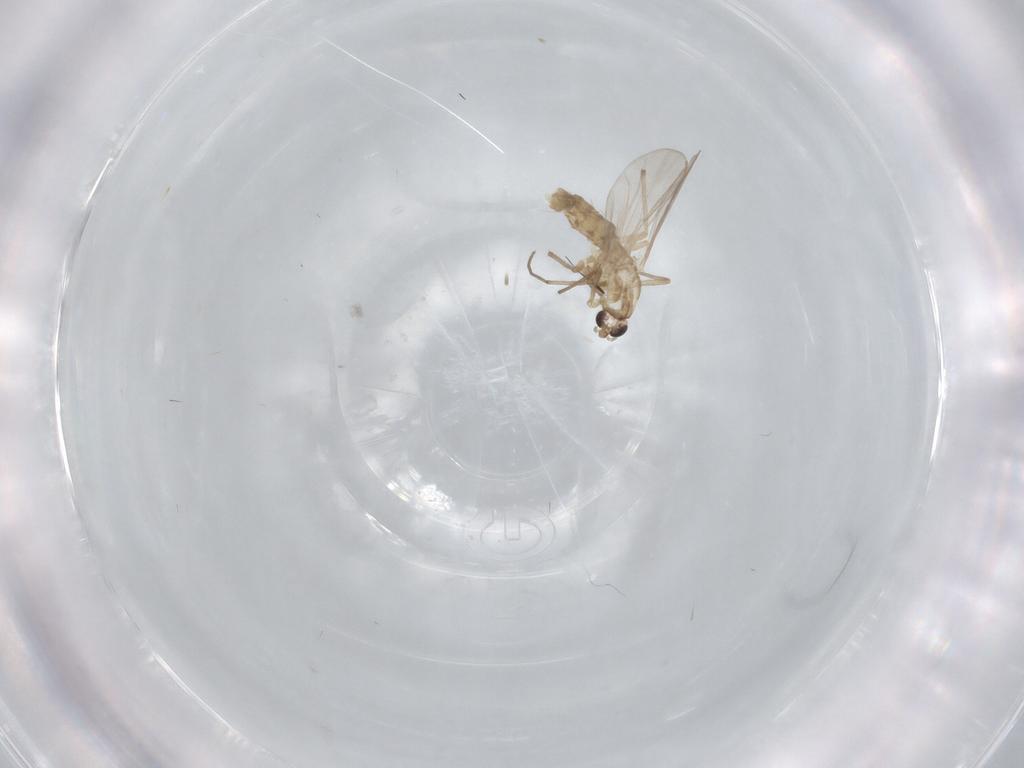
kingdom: Animalia
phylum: Arthropoda
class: Insecta
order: Diptera
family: Chironomidae
